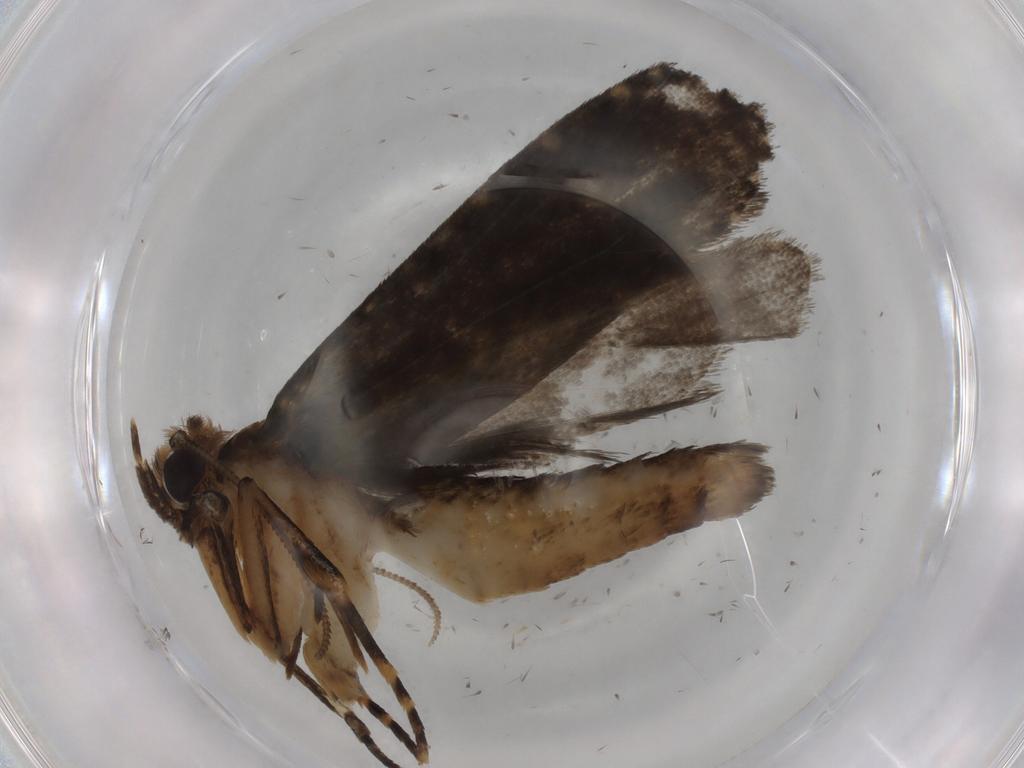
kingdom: Animalia
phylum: Arthropoda
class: Insecta
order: Lepidoptera
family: Tineidae
